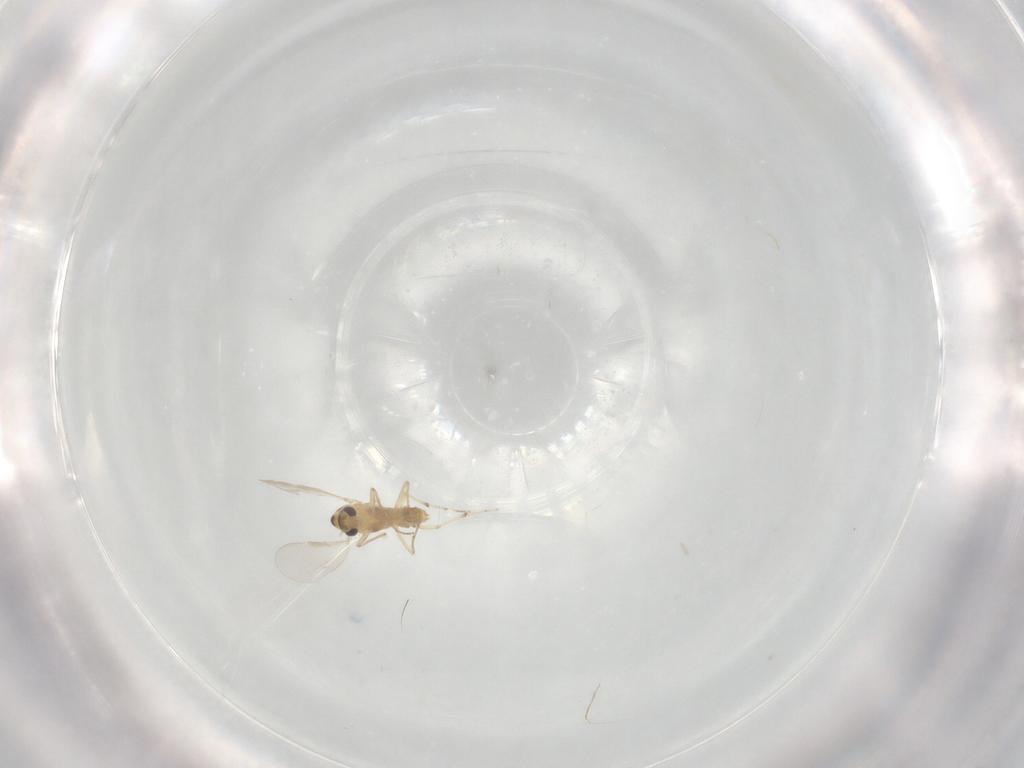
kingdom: Animalia
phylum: Arthropoda
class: Insecta
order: Diptera
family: Chironomidae
